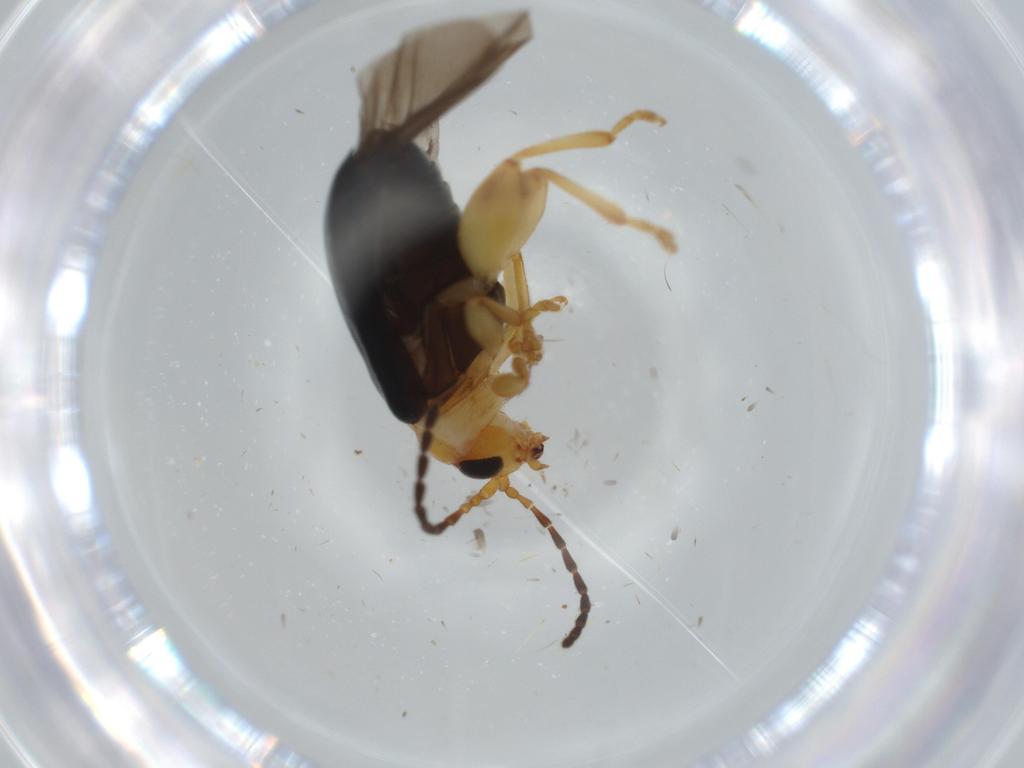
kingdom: Animalia
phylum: Arthropoda
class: Insecta
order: Coleoptera
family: Chrysomelidae
